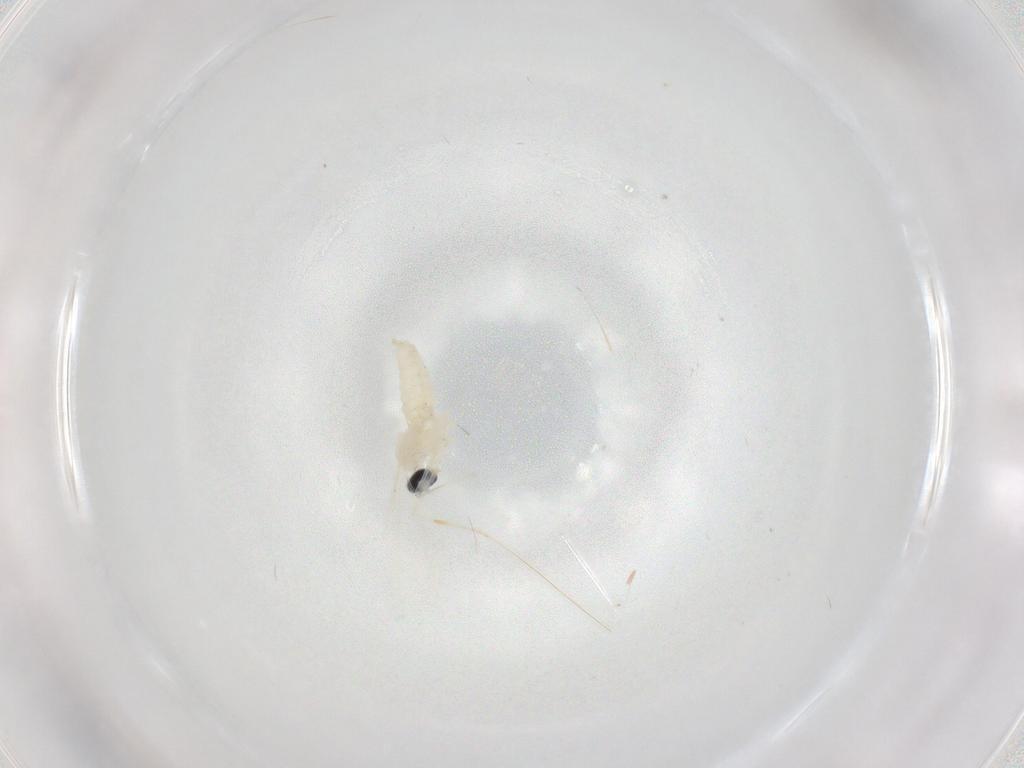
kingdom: Animalia
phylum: Arthropoda
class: Insecta
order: Diptera
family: Cecidomyiidae
